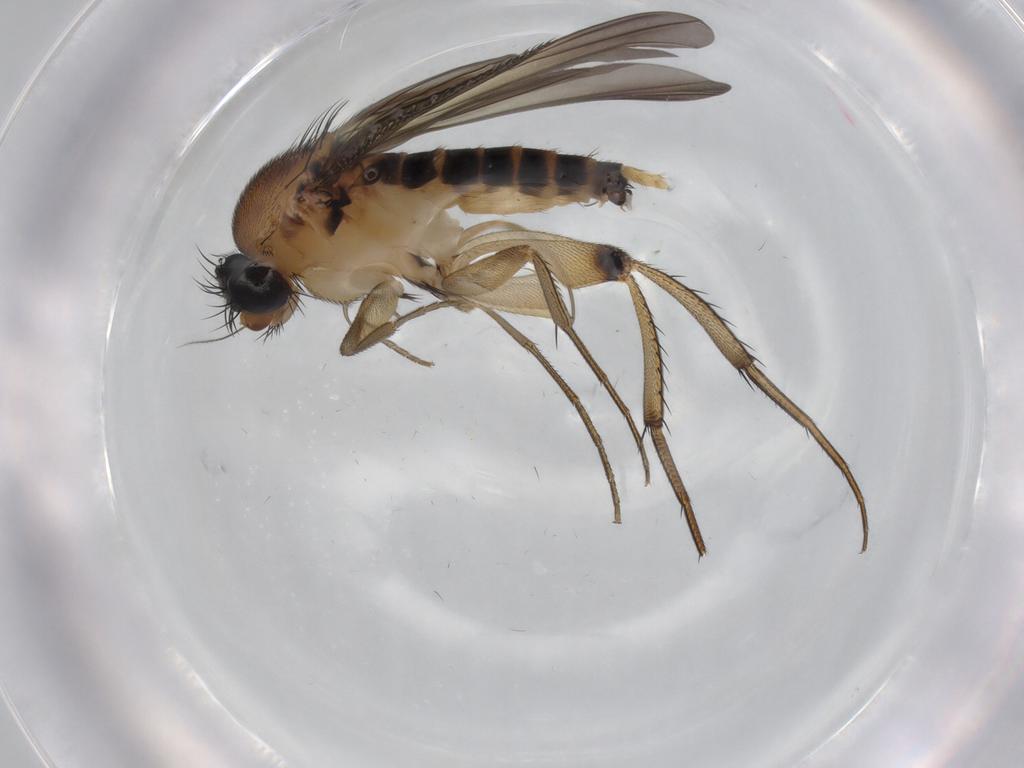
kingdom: Animalia
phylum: Arthropoda
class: Insecta
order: Diptera
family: Phoridae
